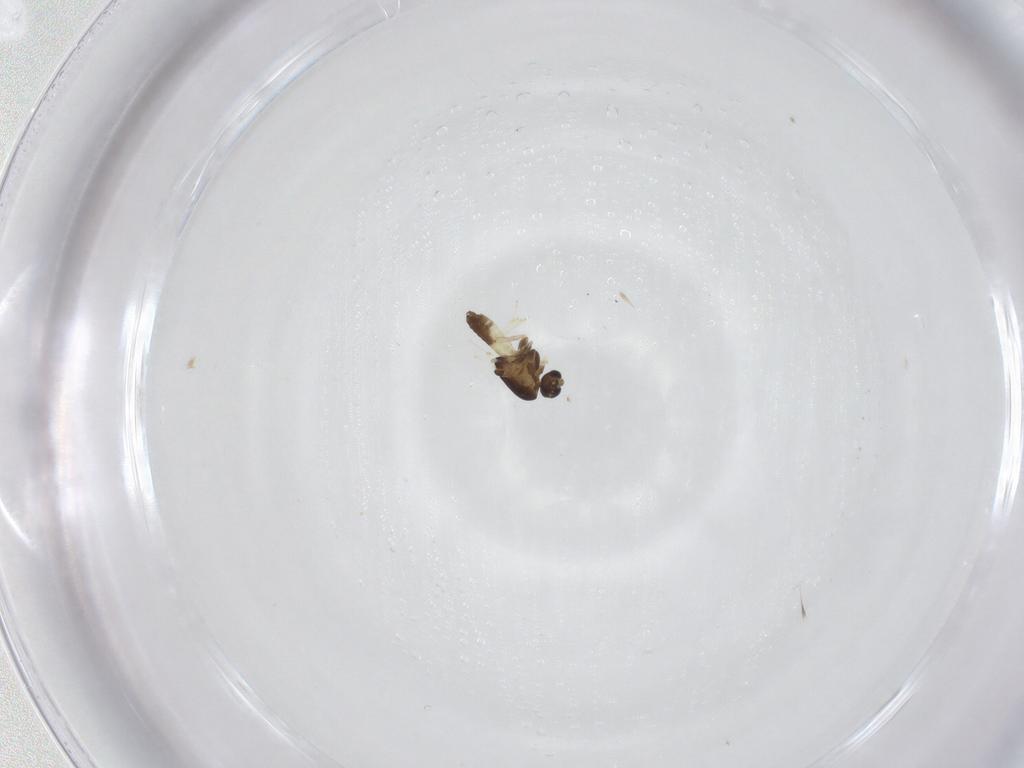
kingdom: Animalia
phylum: Arthropoda
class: Insecta
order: Diptera
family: Chironomidae
